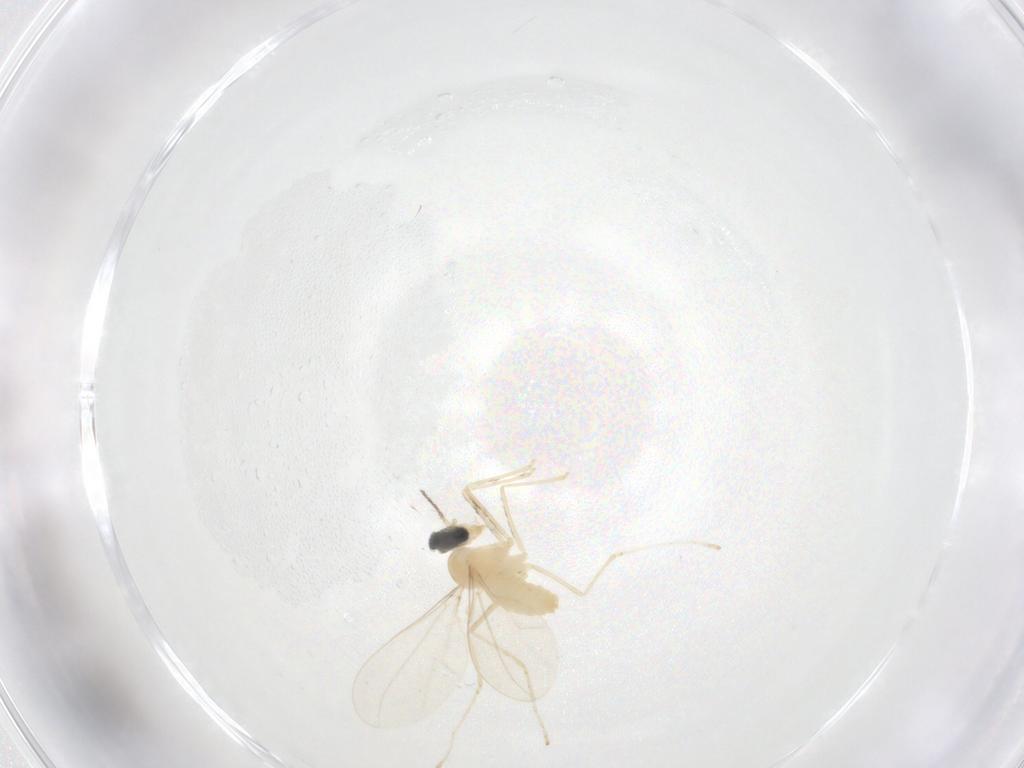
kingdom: Animalia
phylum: Arthropoda
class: Insecta
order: Diptera
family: Cecidomyiidae
